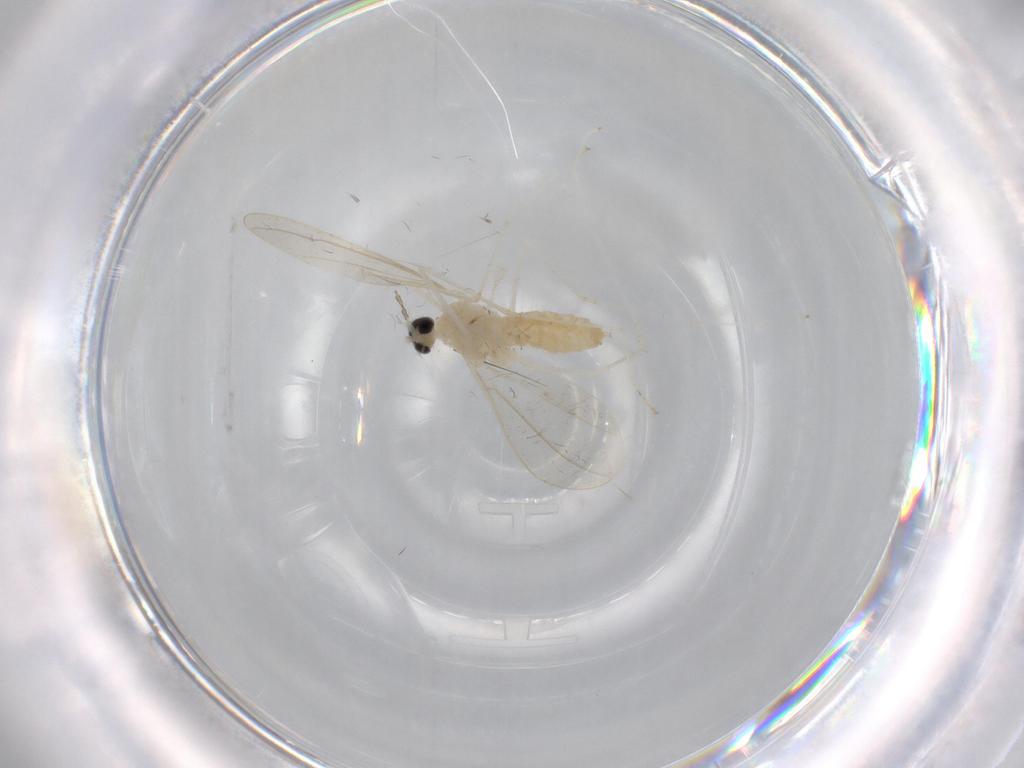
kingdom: Animalia
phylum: Arthropoda
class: Insecta
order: Diptera
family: Cecidomyiidae
